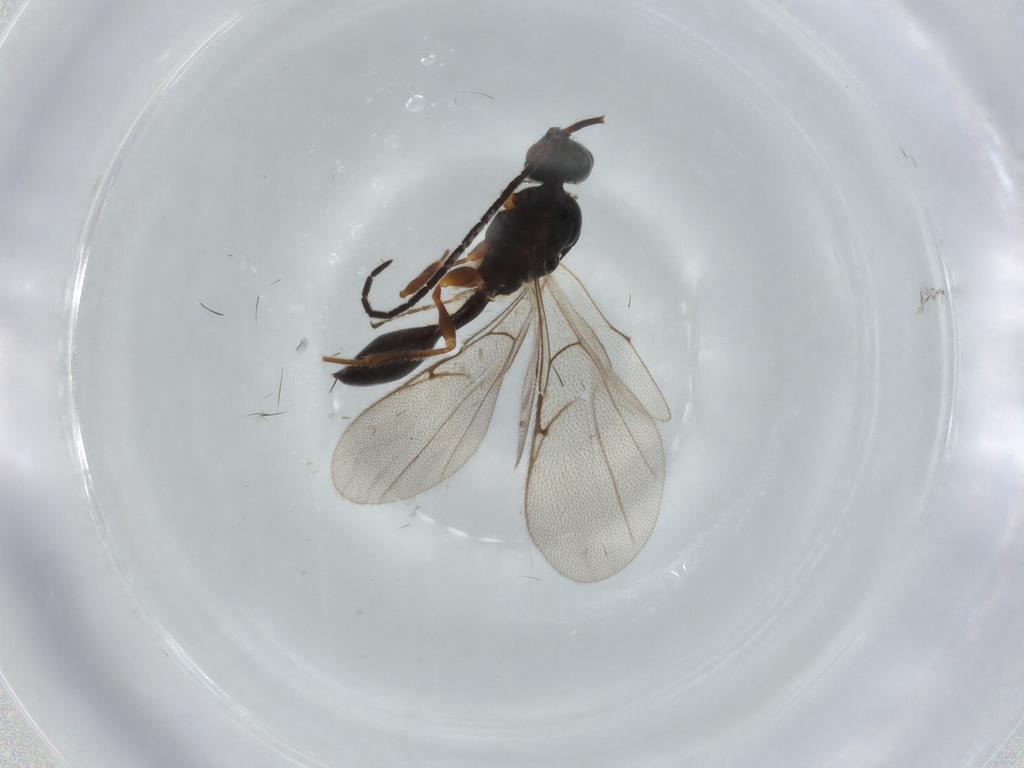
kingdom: Animalia
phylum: Arthropoda
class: Insecta
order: Hymenoptera
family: Diapriidae
